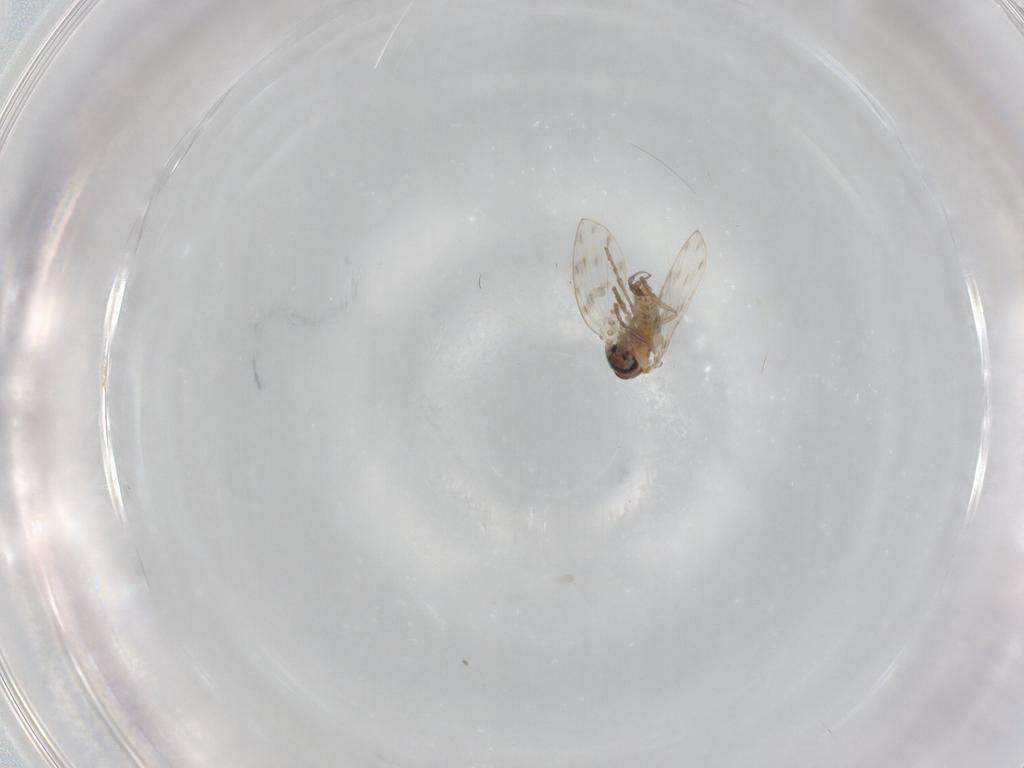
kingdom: Animalia
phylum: Arthropoda
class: Insecta
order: Diptera
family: Psychodidae
